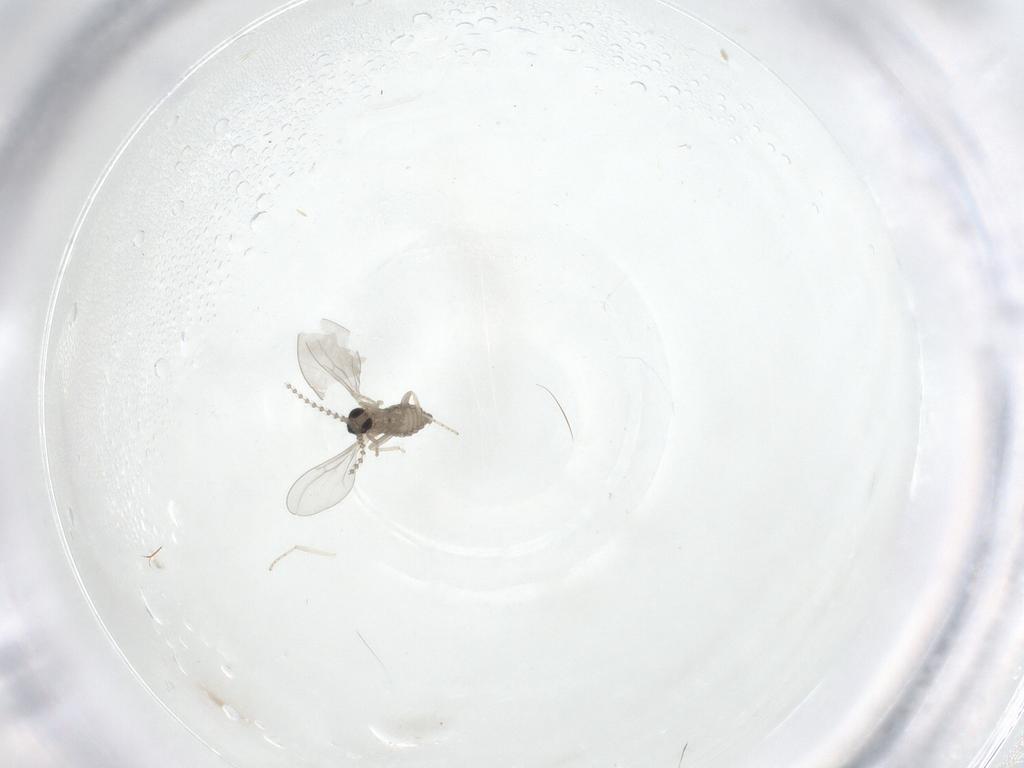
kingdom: Animalia
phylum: Arthropoda
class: Insecta
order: Diptera
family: Cecidomyiidae
